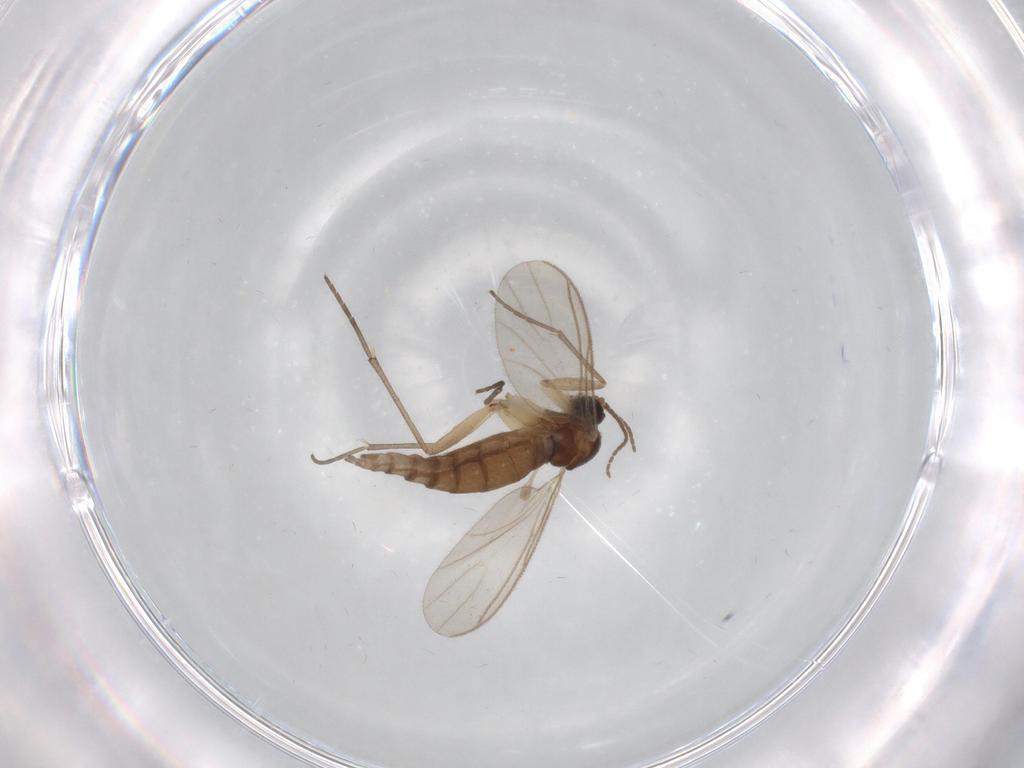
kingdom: Animalia
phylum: Arthropoda
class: Insecta
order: Diptera
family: Sciaridae
